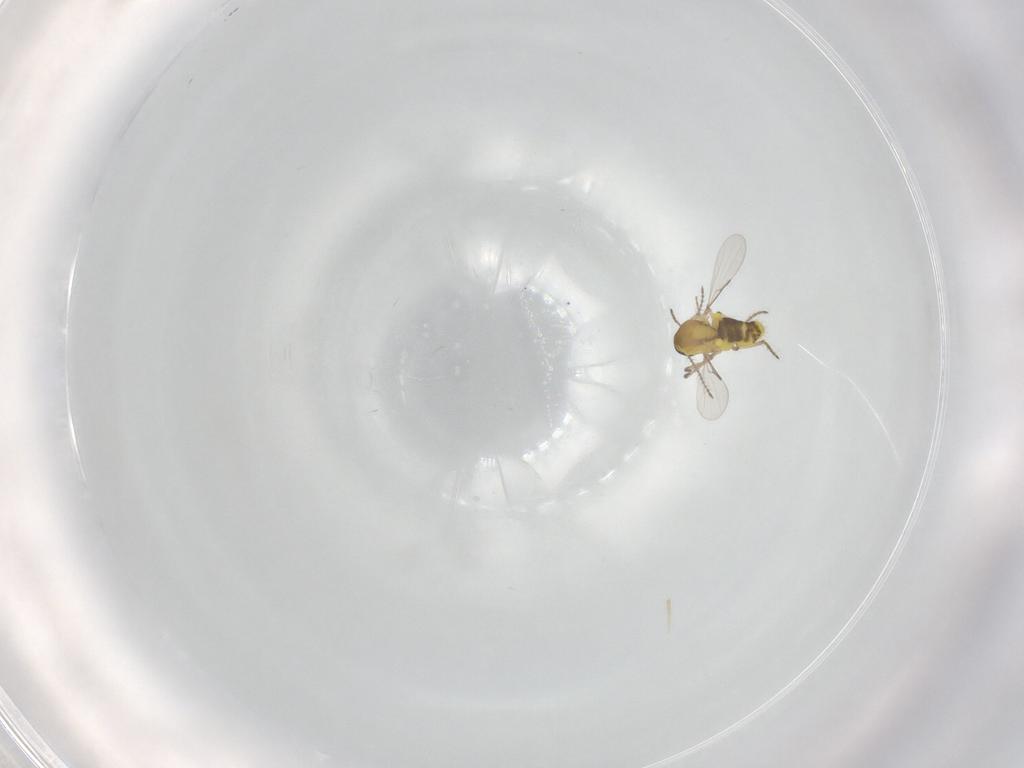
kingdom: Animalia
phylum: Arthropoda
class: Insecta
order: Diptera
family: Ceratopogonidae
